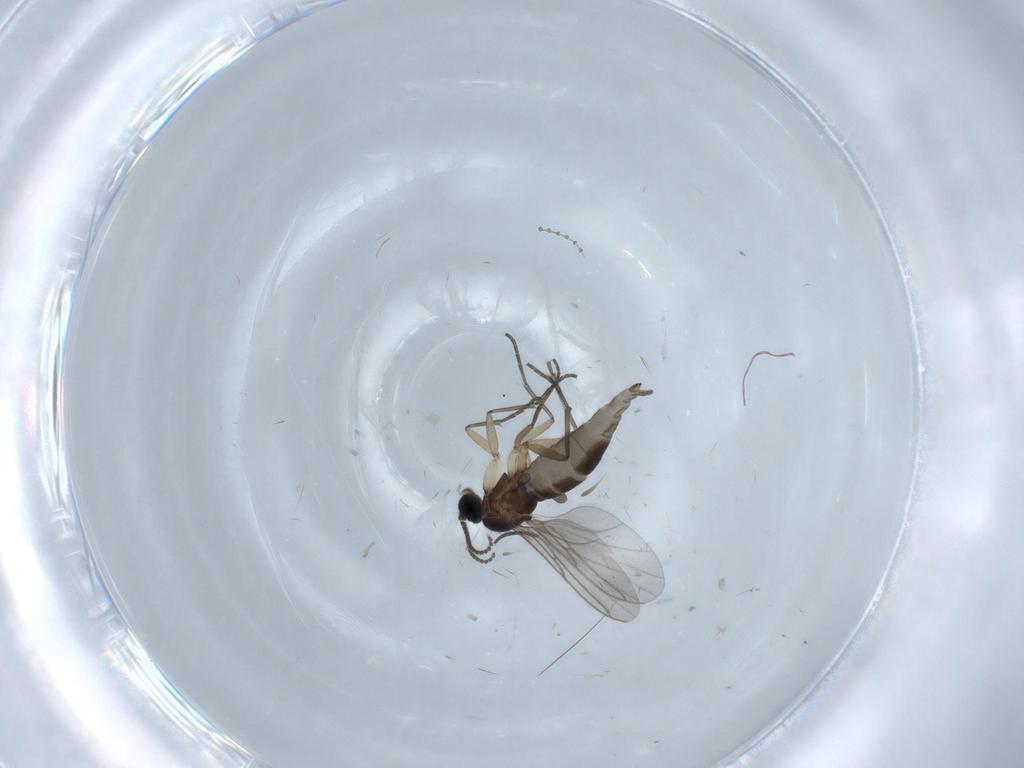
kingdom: Animalia
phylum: Arthropoda
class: Insecta
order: Diptera
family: Sciaridae
